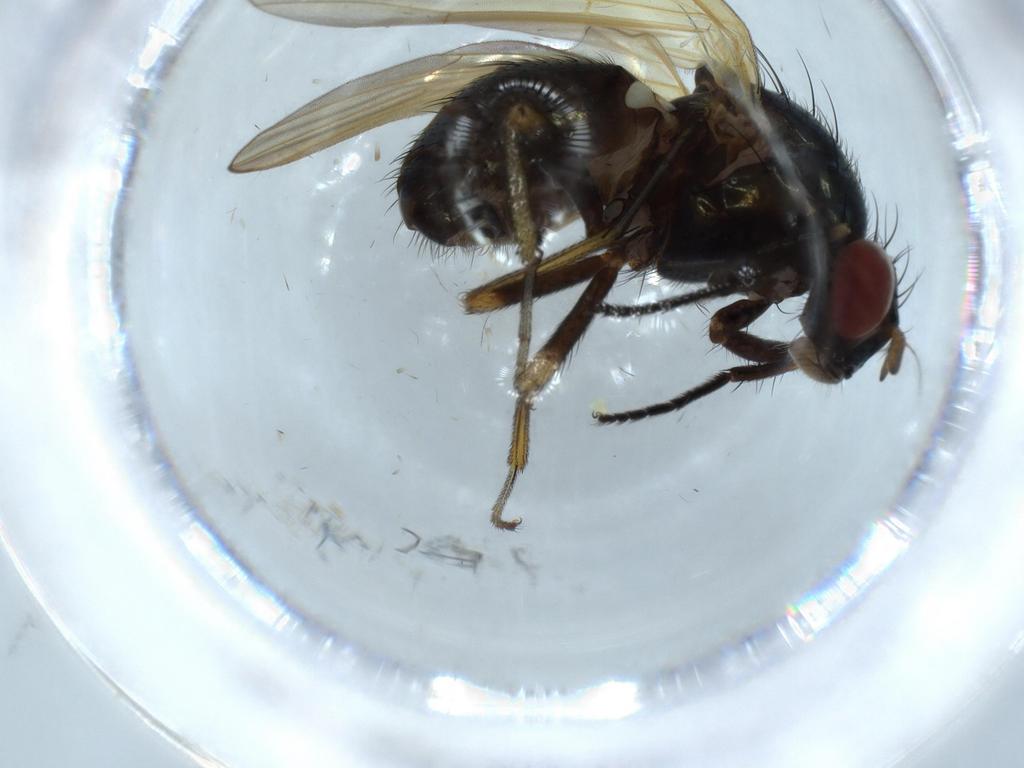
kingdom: Animalia
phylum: Arthropoda
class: Insecta
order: Diptera
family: Lauxaniidae
